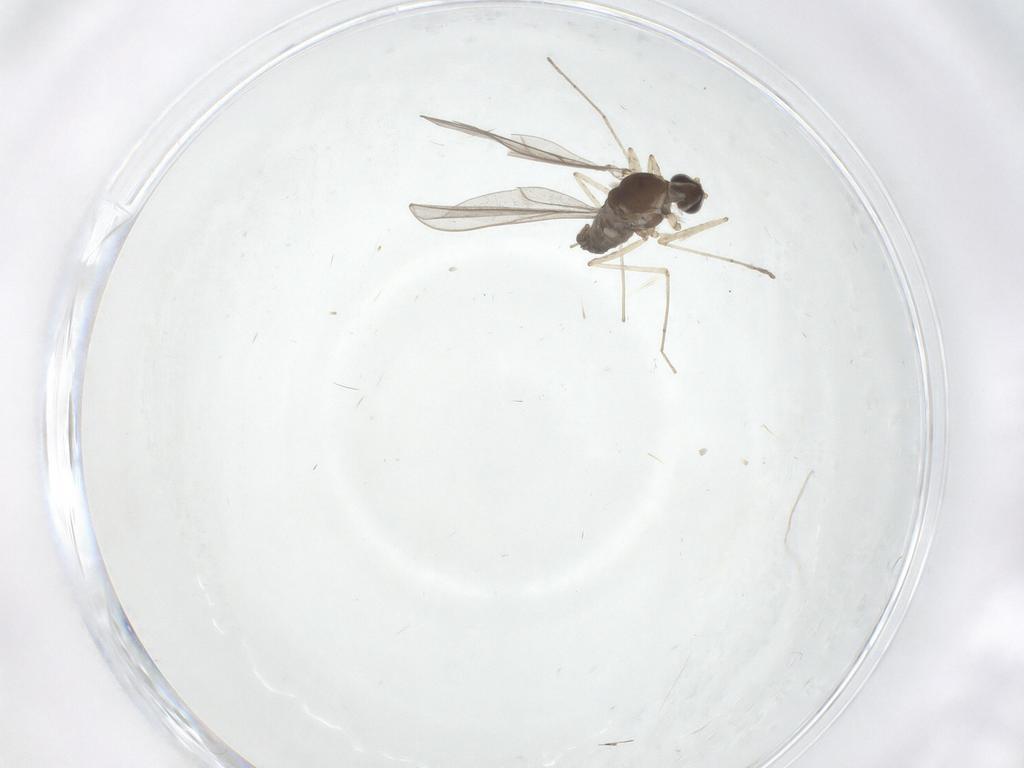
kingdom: Animalia
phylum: Arthropoda
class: Insecta
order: Diptera
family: Cecidomyiidae
